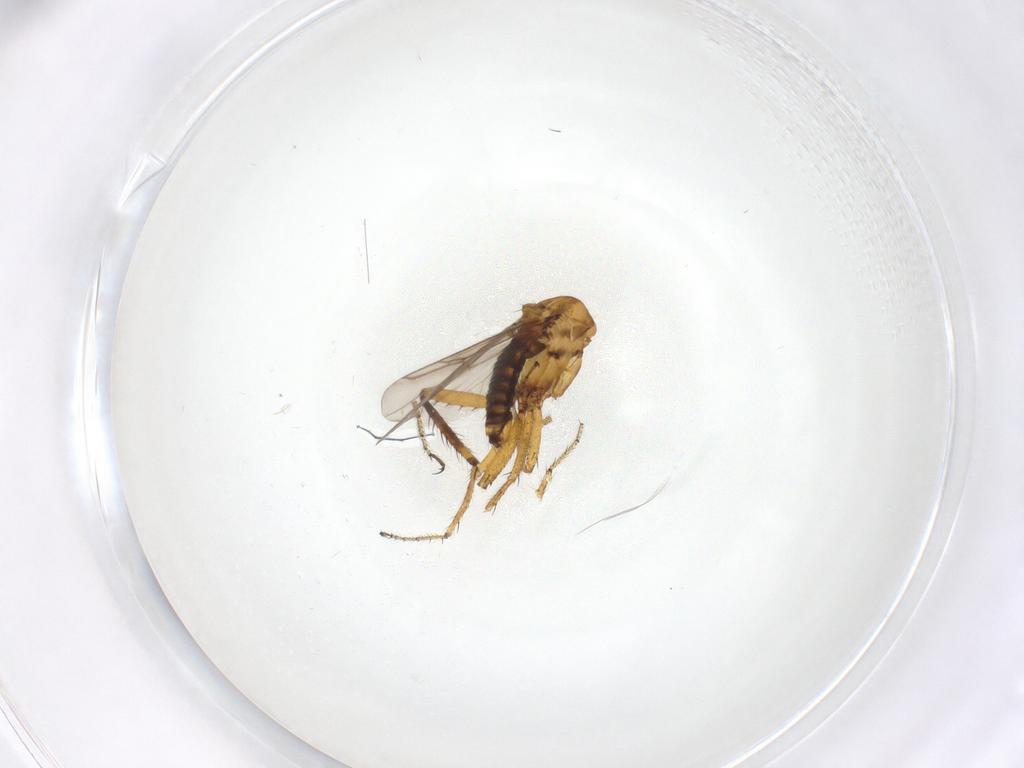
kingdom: Animalia
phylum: Arthropoda
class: Insecta
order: Diptera
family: Ceratopogonidae
